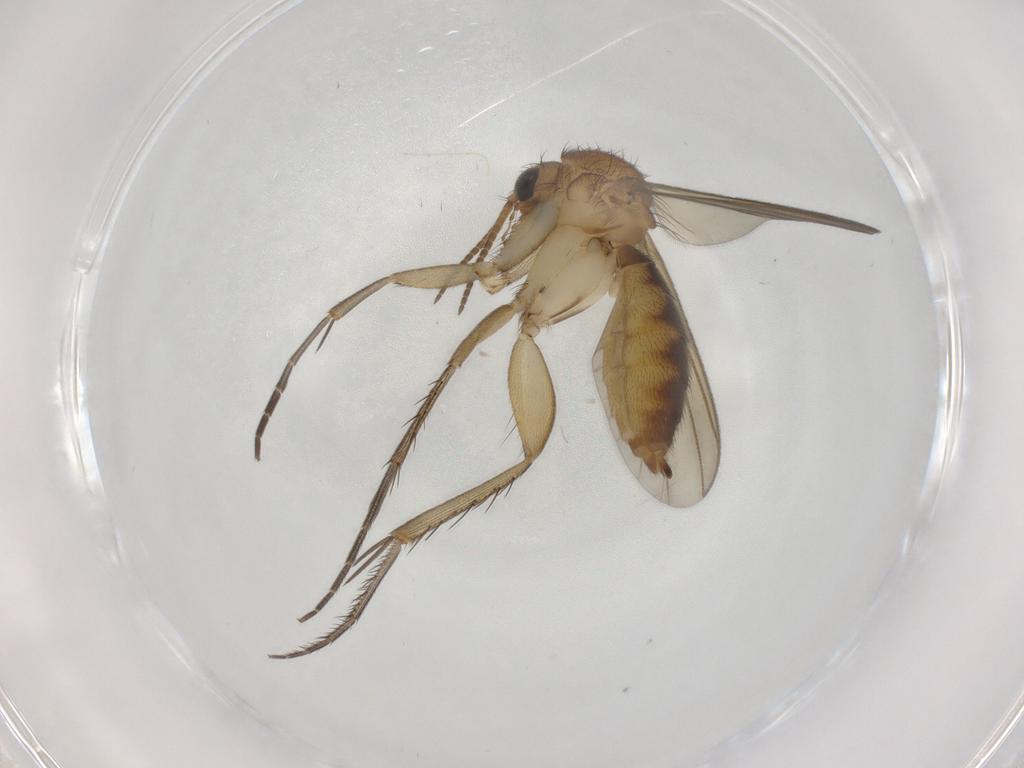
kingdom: Animalia
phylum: Arthropoda
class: Insecta
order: Diptera
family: Mycetophilidae
